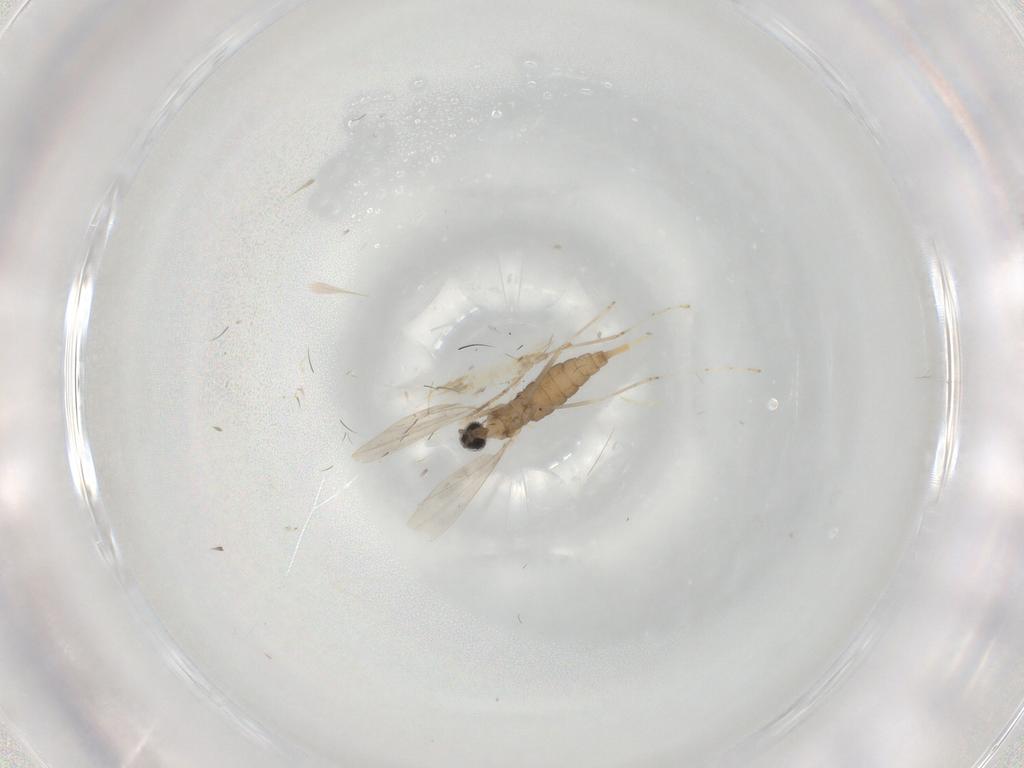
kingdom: Animalia
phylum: Arthropoda
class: Insecta
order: Diptera
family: Cecidomyiidae
